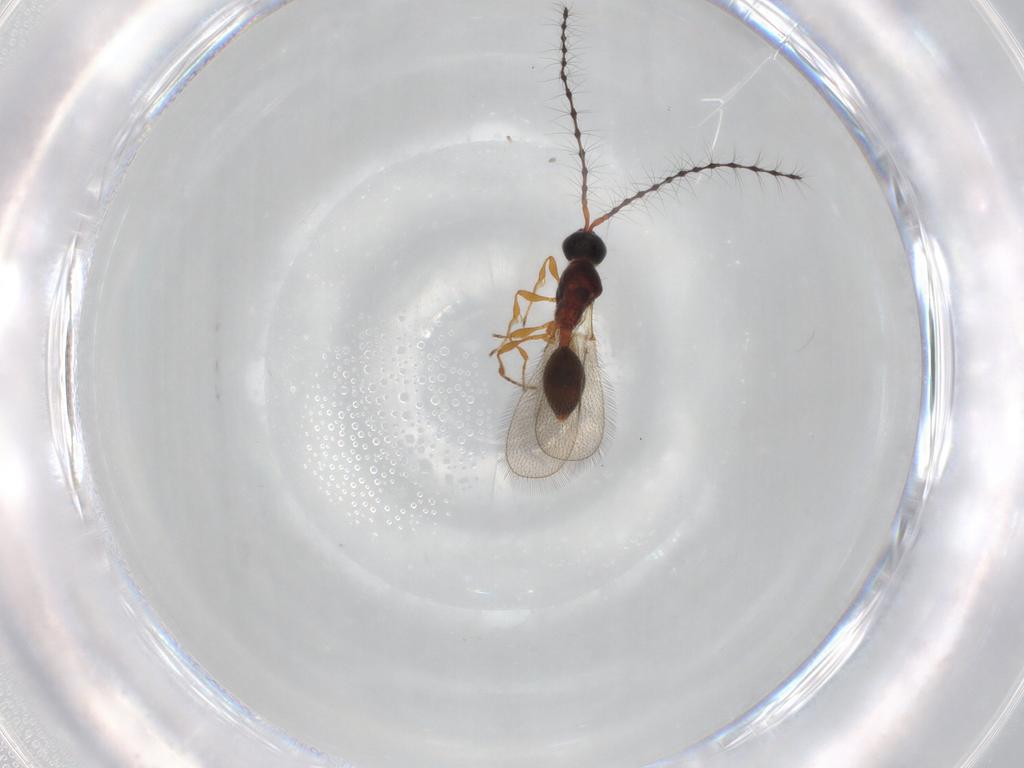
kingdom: Animalia
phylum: Arthropoda
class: Insecta
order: Hymenoptera
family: Diapriidae
